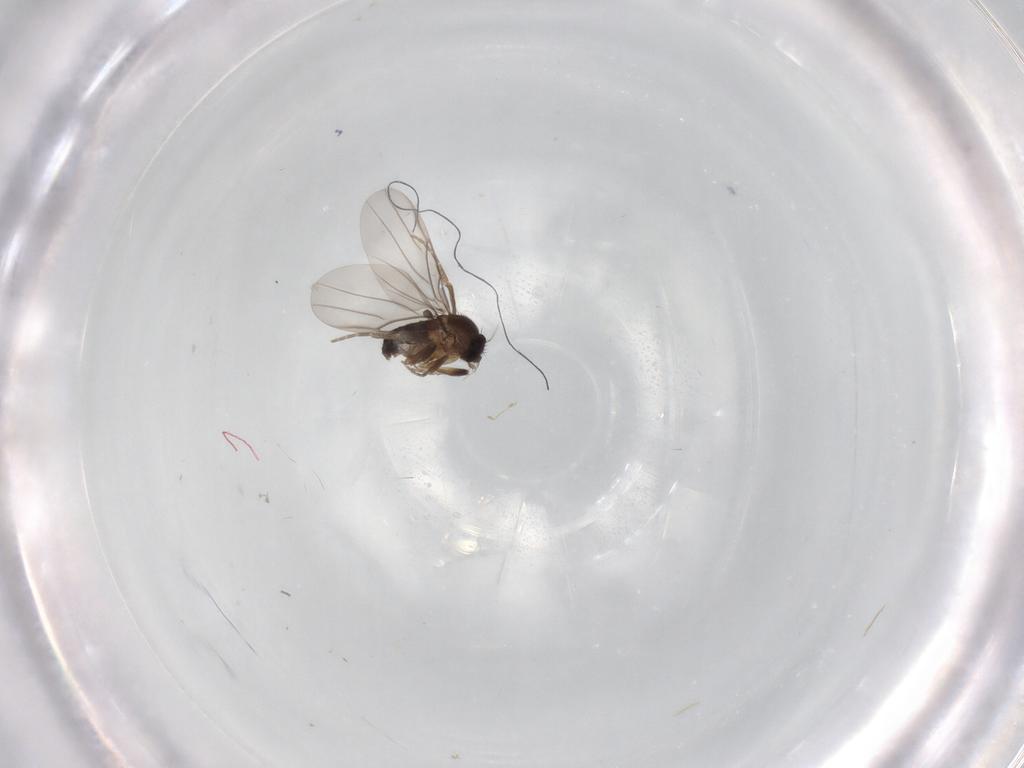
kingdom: Animalia
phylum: Arthropoda
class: Insecta
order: Diptera
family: Phoridae
